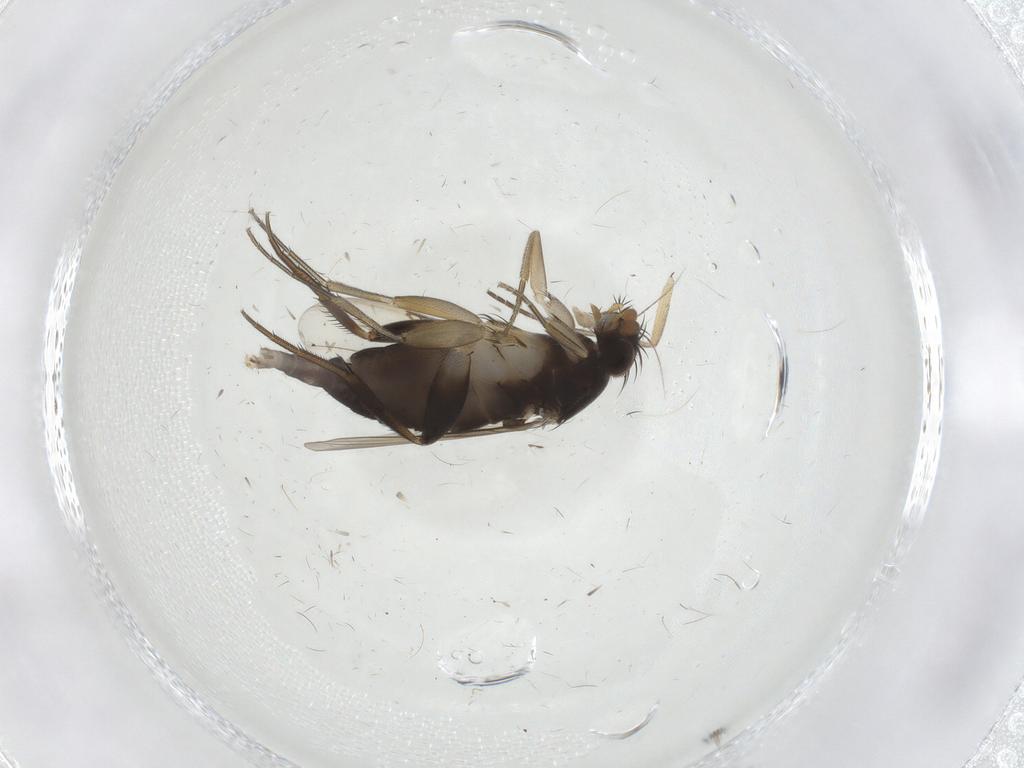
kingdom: Animalia
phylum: Arthropoda
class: Insecta
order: Diptera
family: Phoridae
